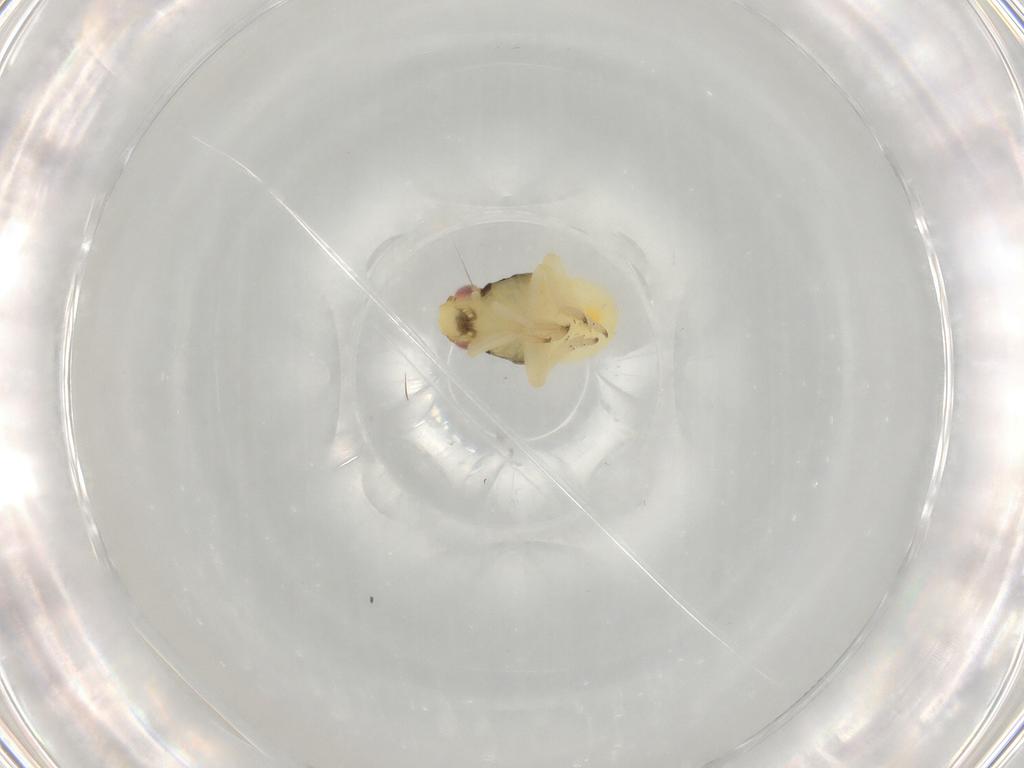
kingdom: Animalia
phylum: Arthropoda
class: Insecta
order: Hemiptera
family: Caliscelidae
